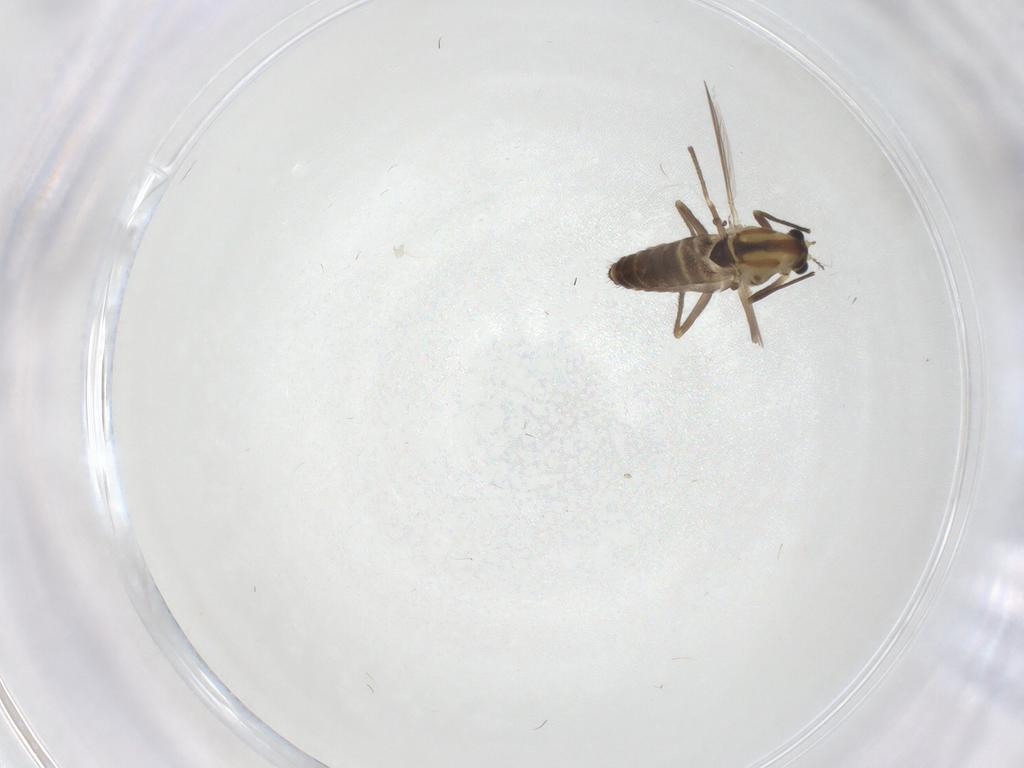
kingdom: Animalia
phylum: Arthropoda
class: Insecta
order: Diptera
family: Chironomidae
